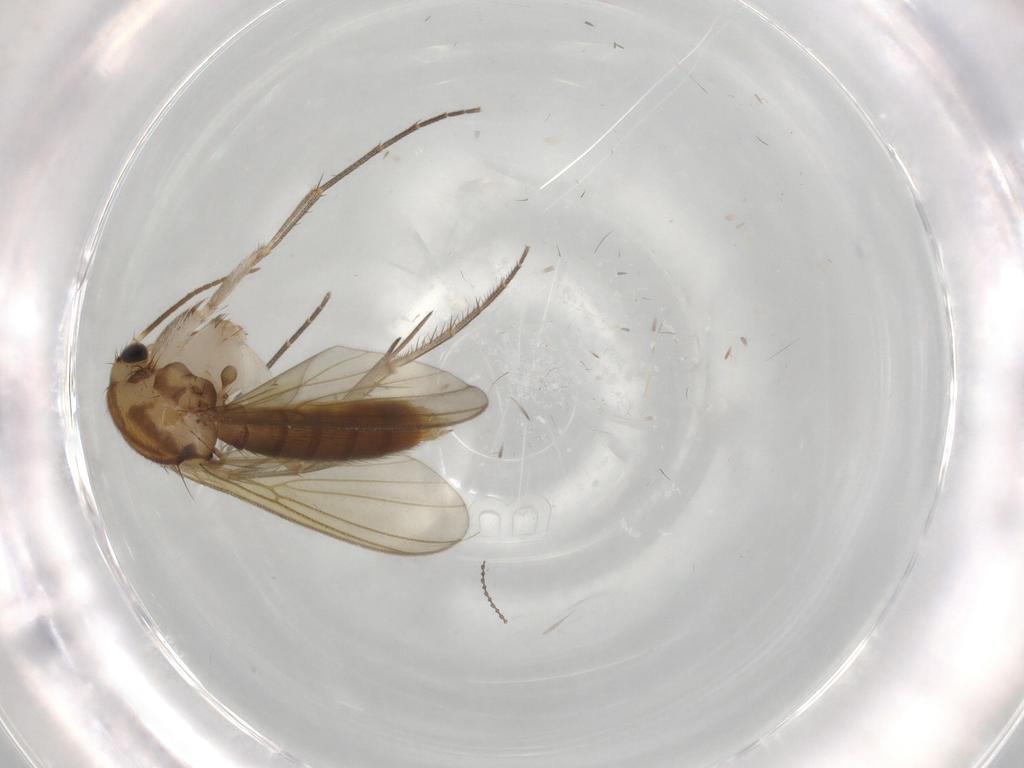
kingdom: Animalia
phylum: Arthropoda
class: Insecta
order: Diptera
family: Mycetophilidae
